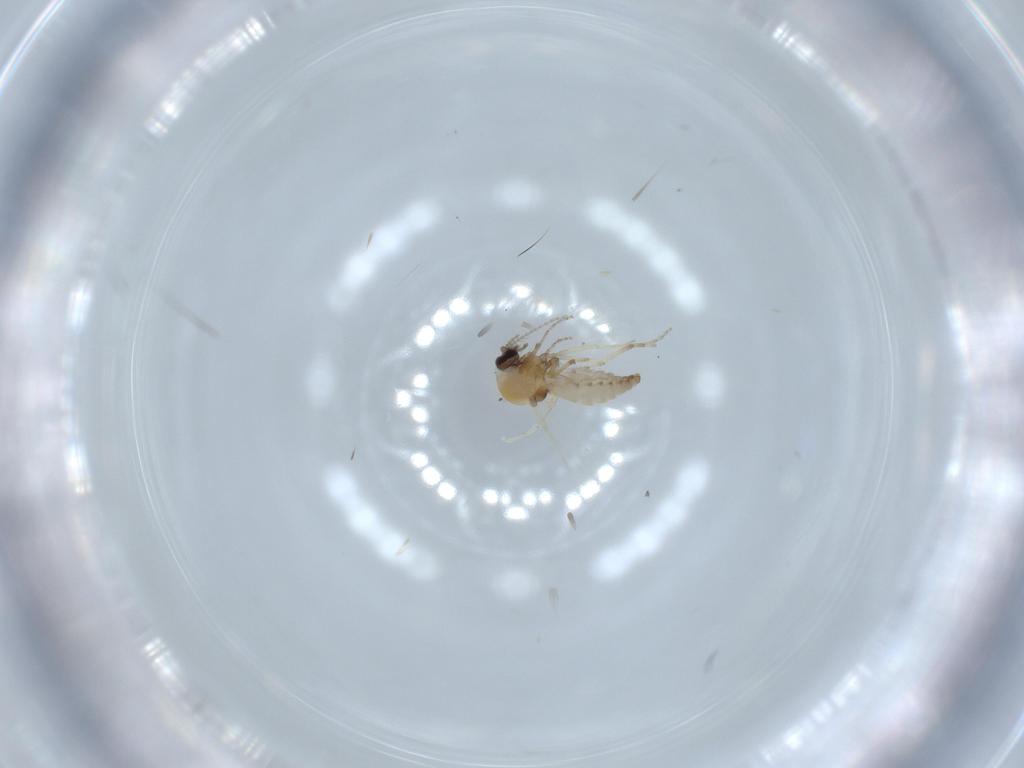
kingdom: Animalia
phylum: Arthropoda
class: Insecta
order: Diptera
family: Ceratopogonidae
